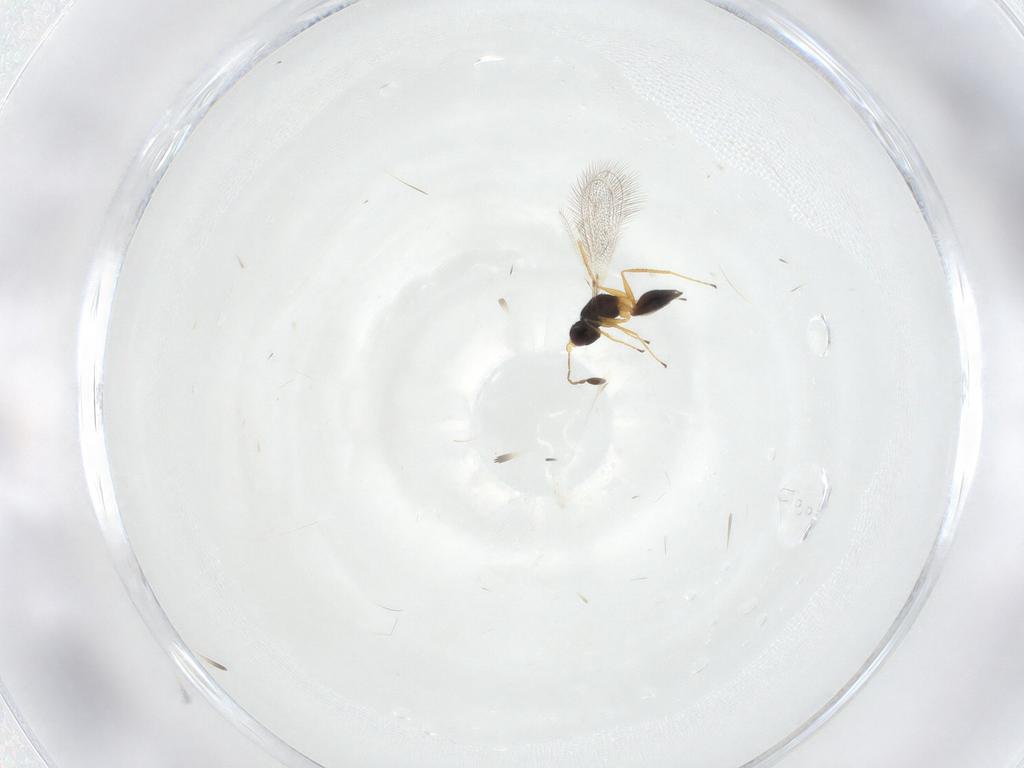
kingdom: Animalia
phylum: Arthropoda
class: Insecta
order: Hymenoptera
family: Mymaridae
